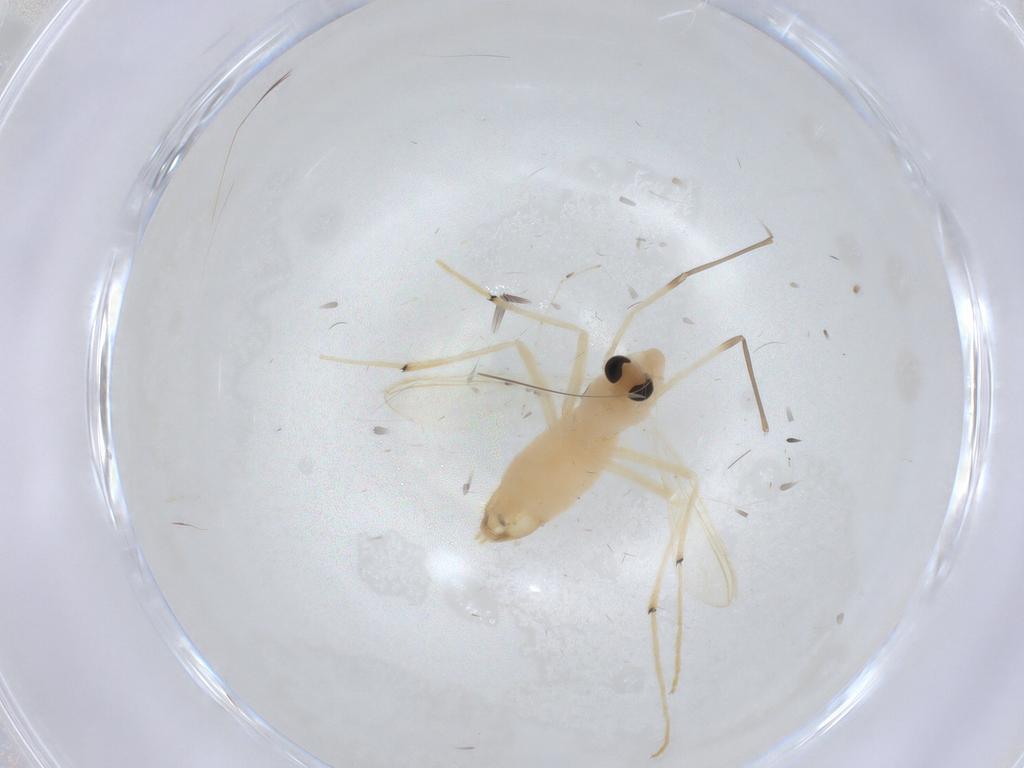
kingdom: Animalia
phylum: Arthropoda
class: Insecta
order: Diptera
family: Chironomidae
